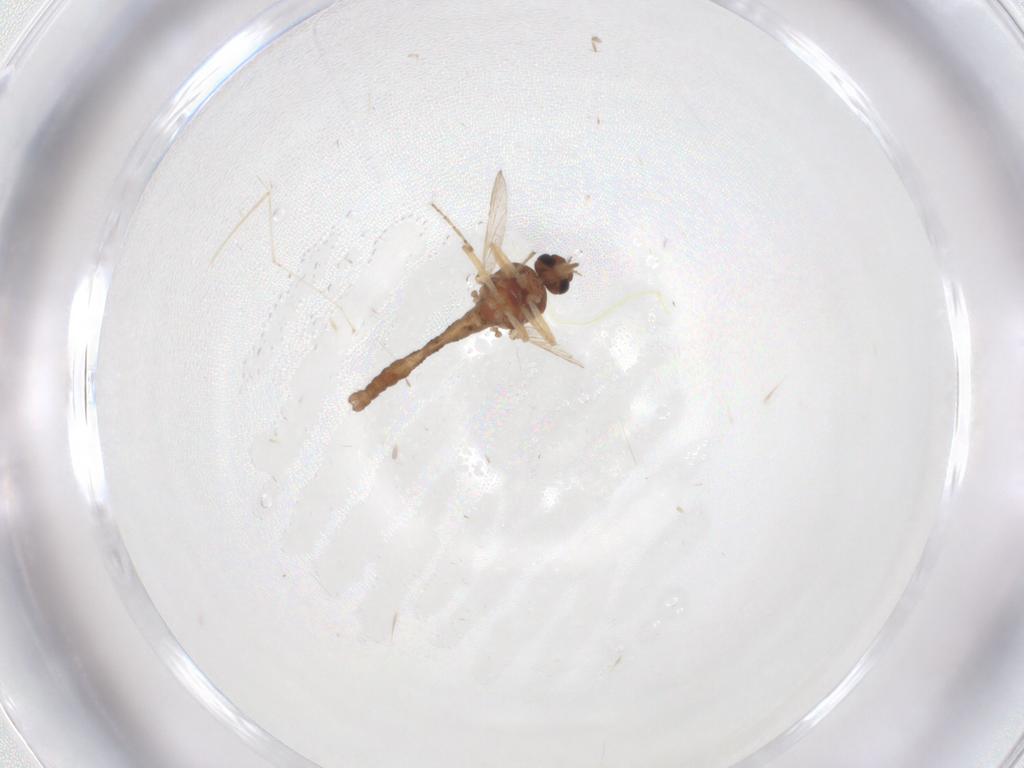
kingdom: Animalia
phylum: Arthropoda
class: Insecta
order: Diptera
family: Ceratopogonidae
